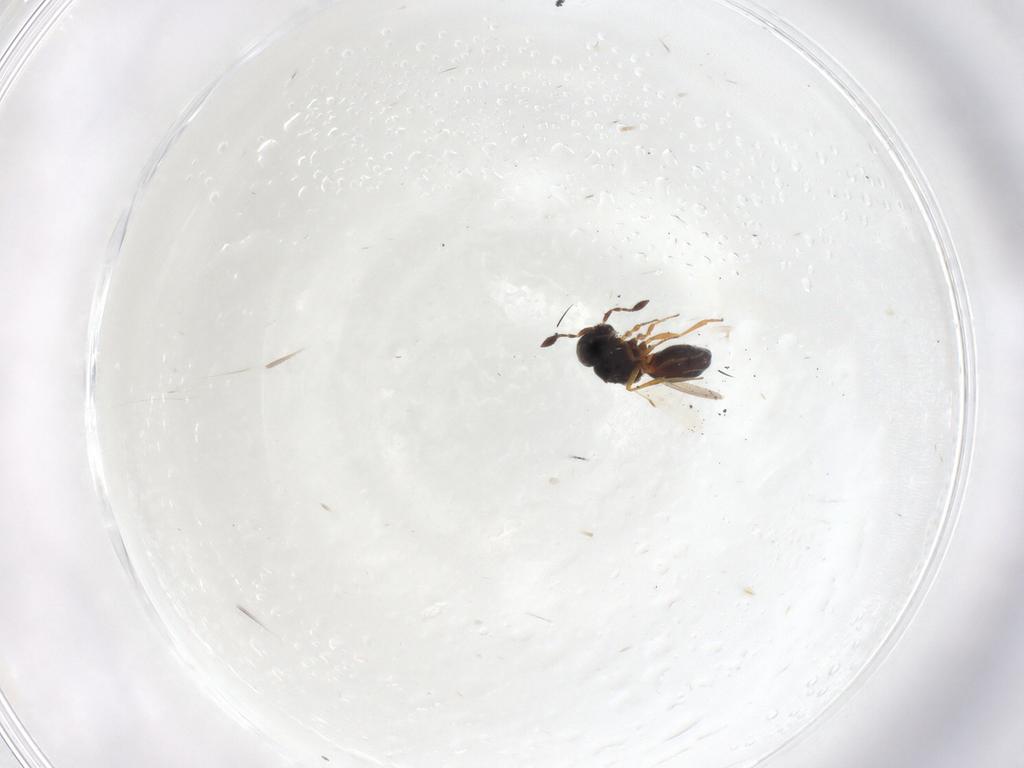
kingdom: Animalia
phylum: Arthropoda
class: Insecta
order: Hymenoptera
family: Scelionidae
